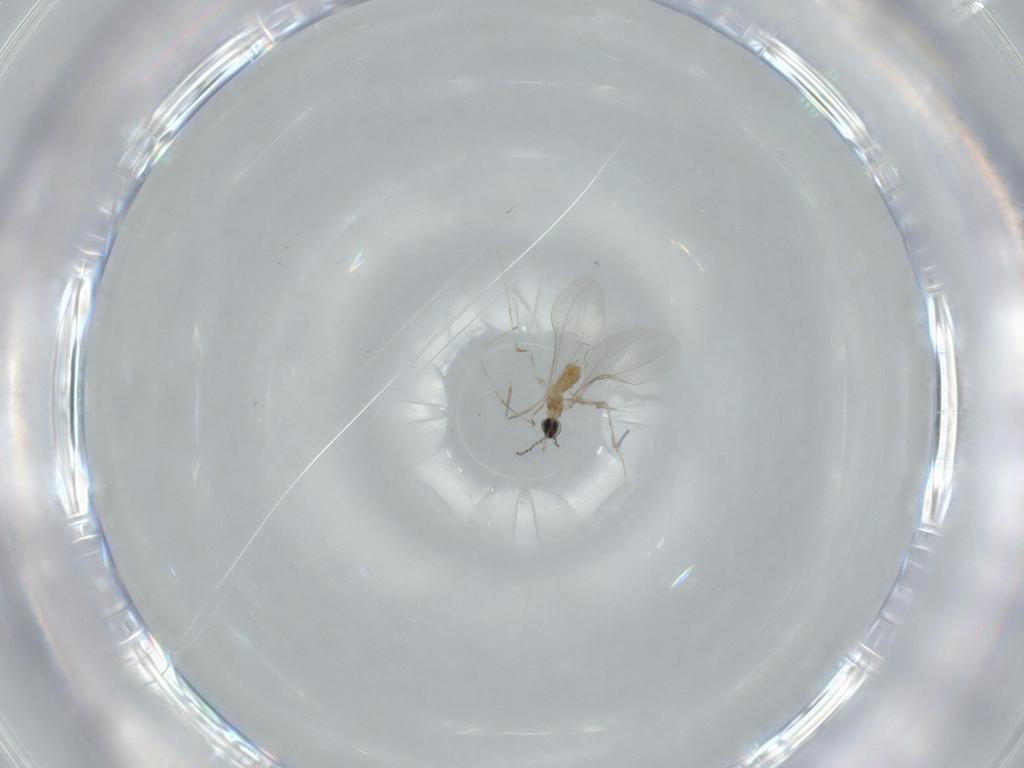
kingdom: Animalia
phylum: Arthropoda
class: Insecta
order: Diptera
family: Cecidomyiidae
